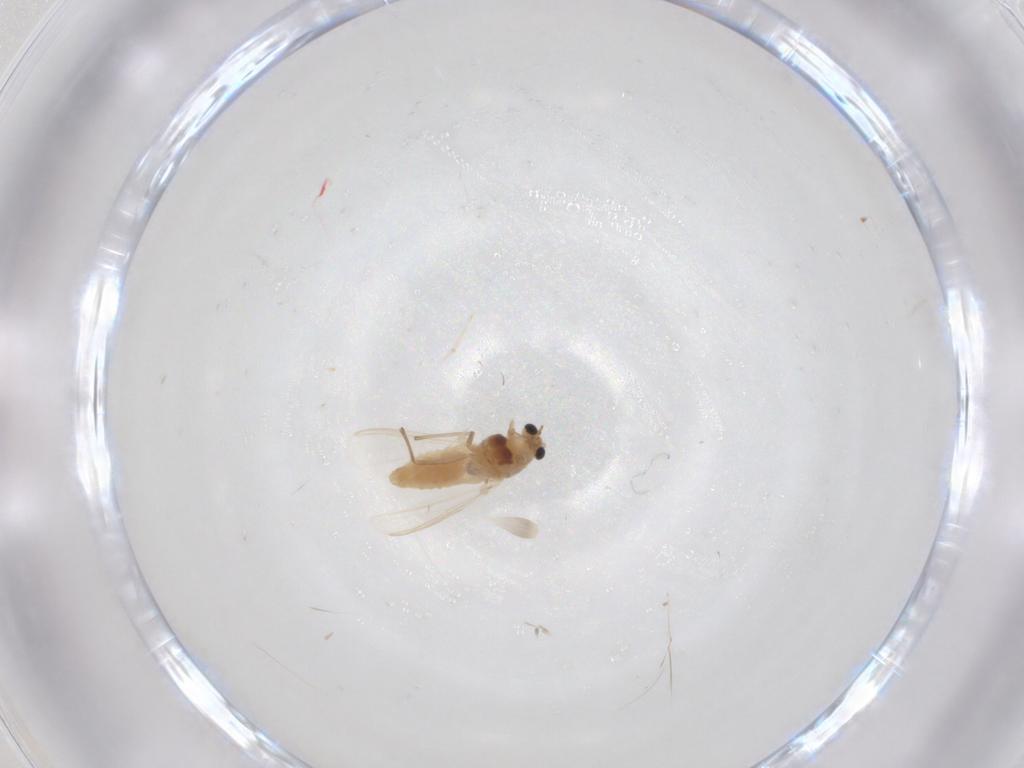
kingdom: Animalia
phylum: Arthropoda
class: Insecta
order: Diptera
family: Chironomidae
